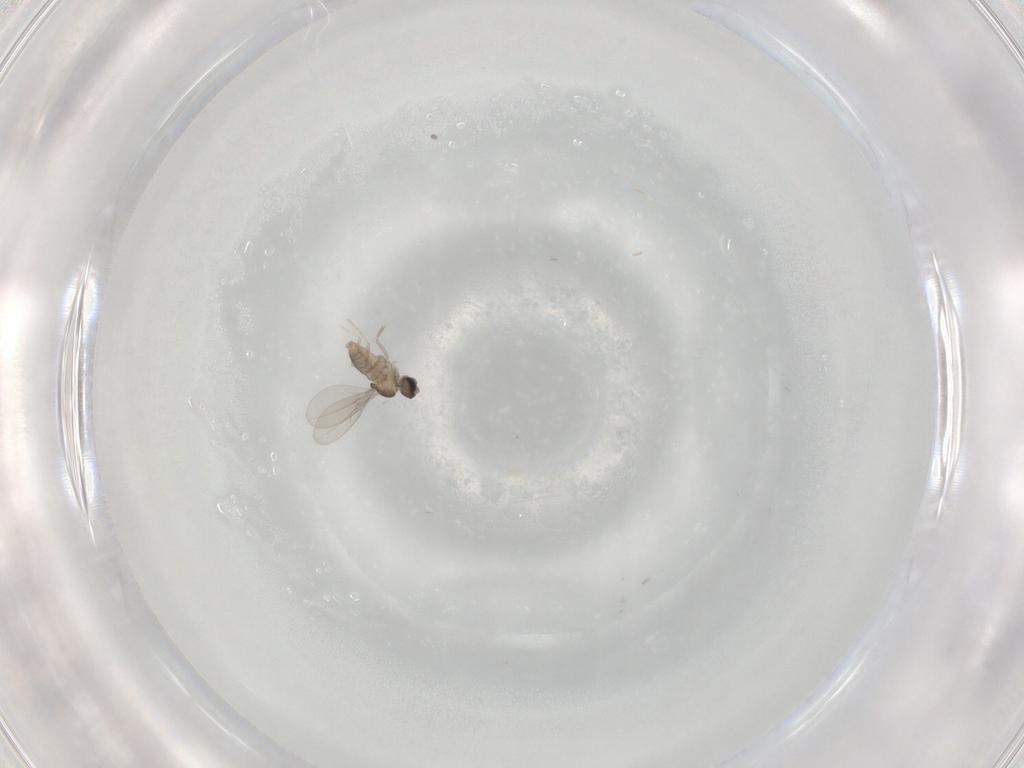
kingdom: Animalia
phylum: Arthropoda
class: Insecta
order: Diptera
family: Cecidomyiidae
